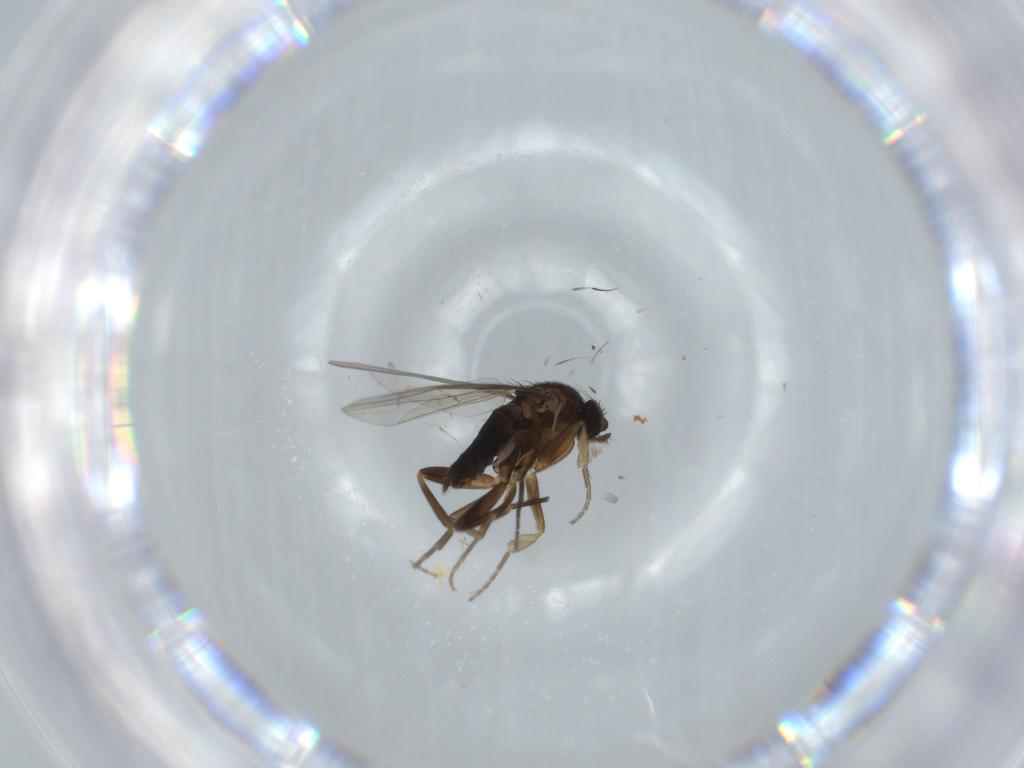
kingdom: Animalia
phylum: Arthropoda
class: Insecta
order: Diptera
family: Phoridae
